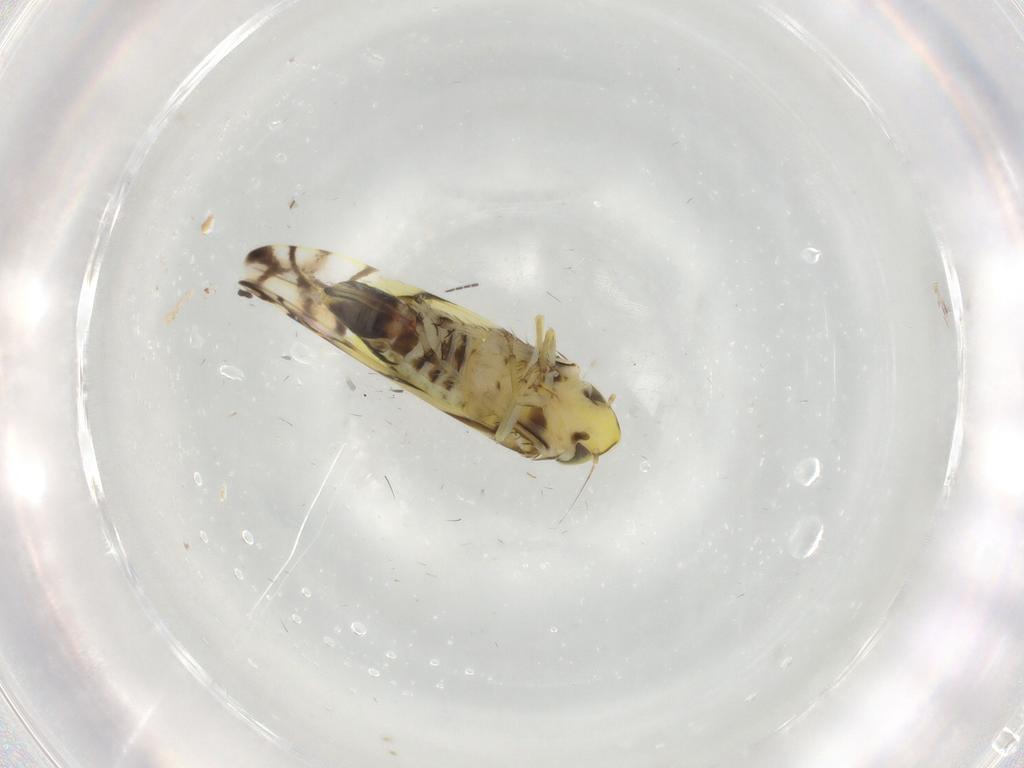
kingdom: Animalia
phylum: Arthropoda
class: Insecta
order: Hemiptera
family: Cicadellidae
